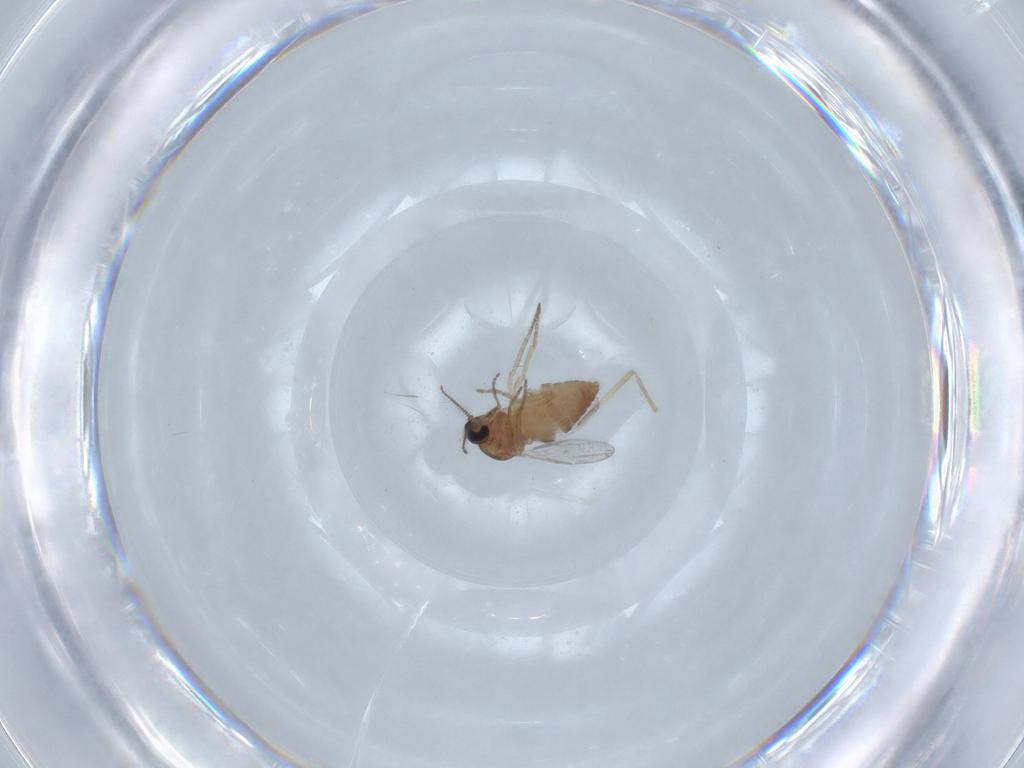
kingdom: Animalia
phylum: Arthropoda
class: Insecta
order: Diptera
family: Ceratopogonidae
